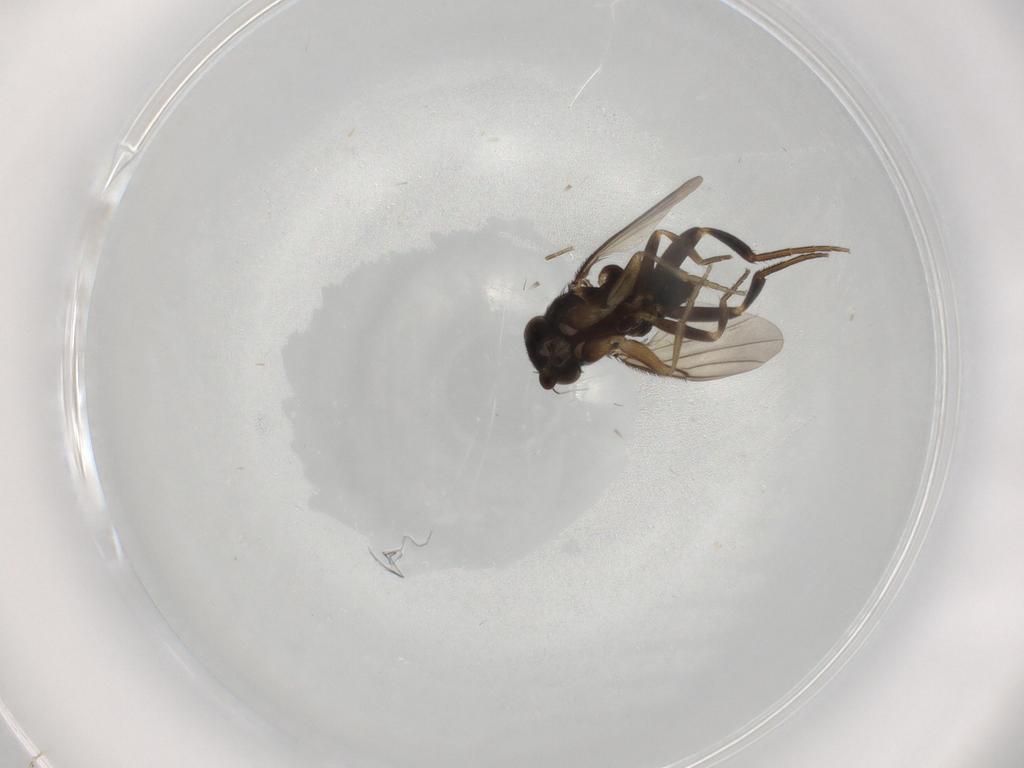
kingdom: Animalia
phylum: Arthropoda
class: Insecta
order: Diptera
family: Phoridae
